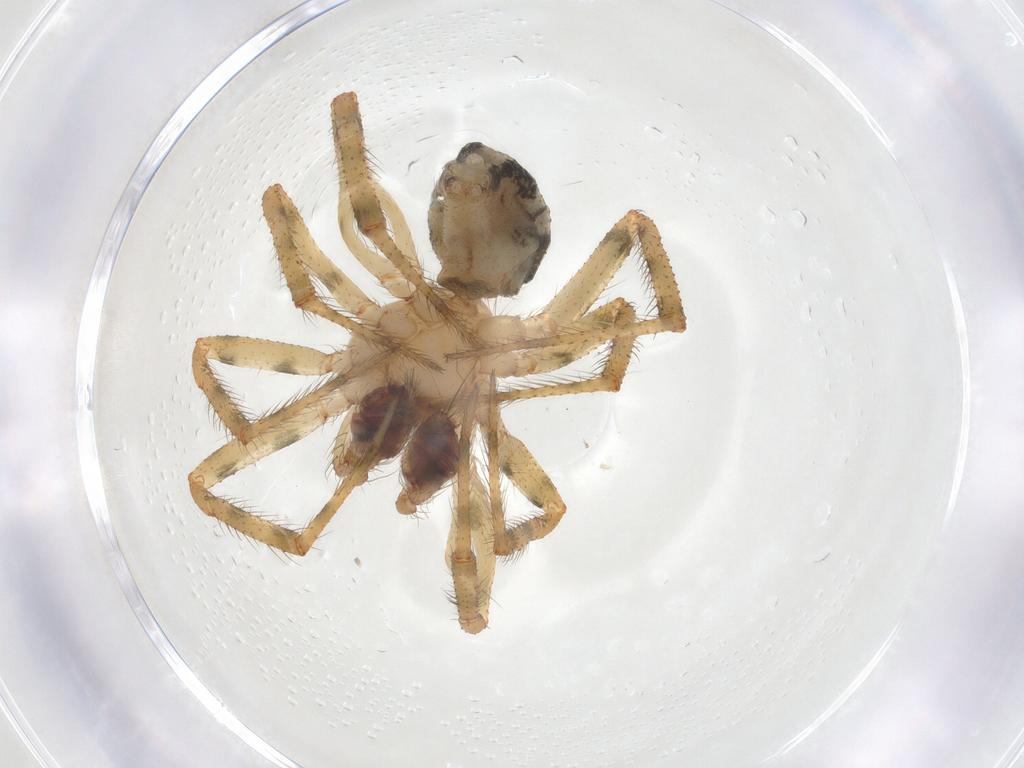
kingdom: Animalia
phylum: Arthropoda
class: Arachnida
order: Araneae
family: Theridiidae
